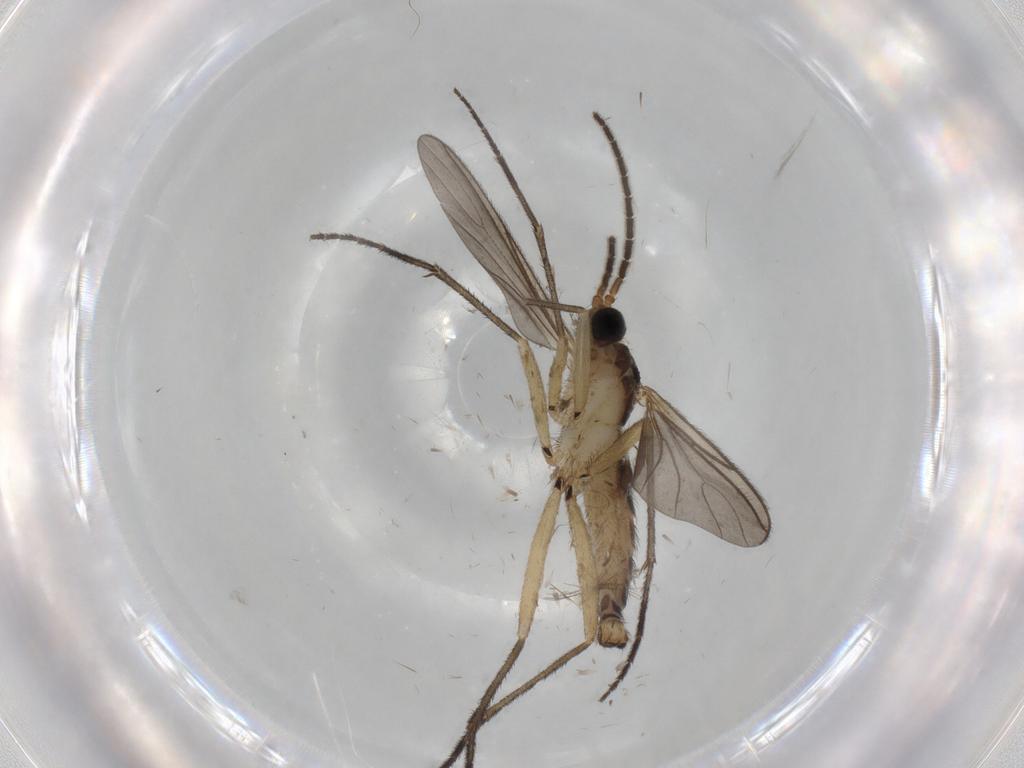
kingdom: Animalia
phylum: Arthropoda
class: Insecta
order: Diptera
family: Sciaridae
